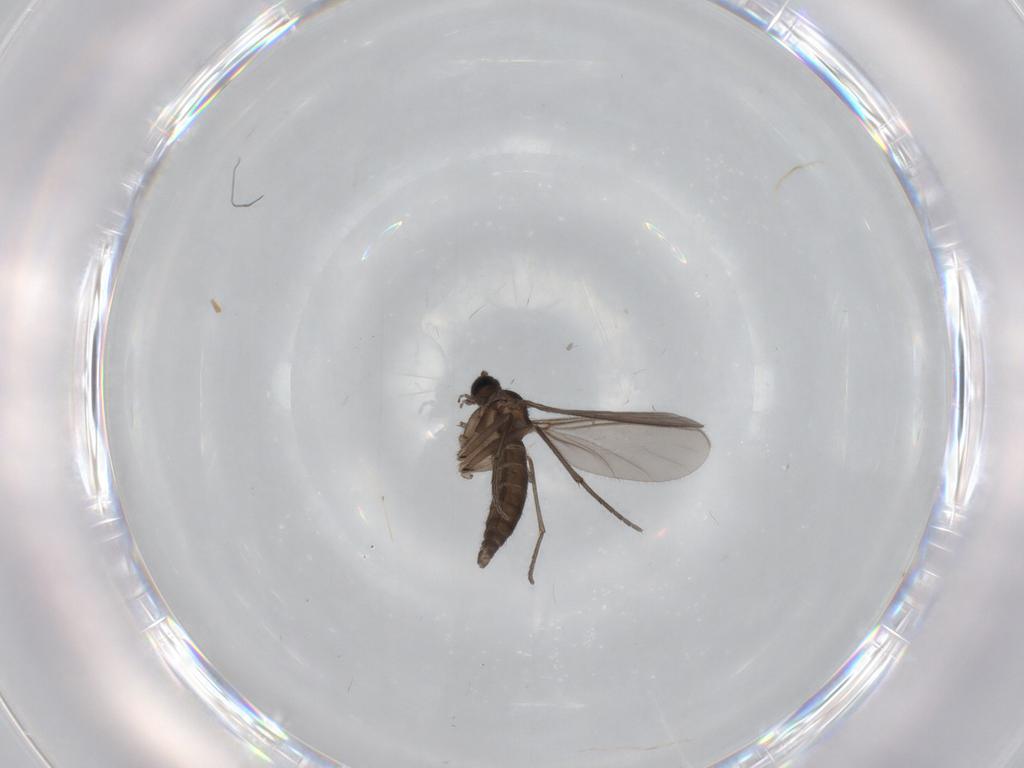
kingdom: Animalia
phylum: Arthropoda
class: Insecta
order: Diptera
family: Sciaridae
